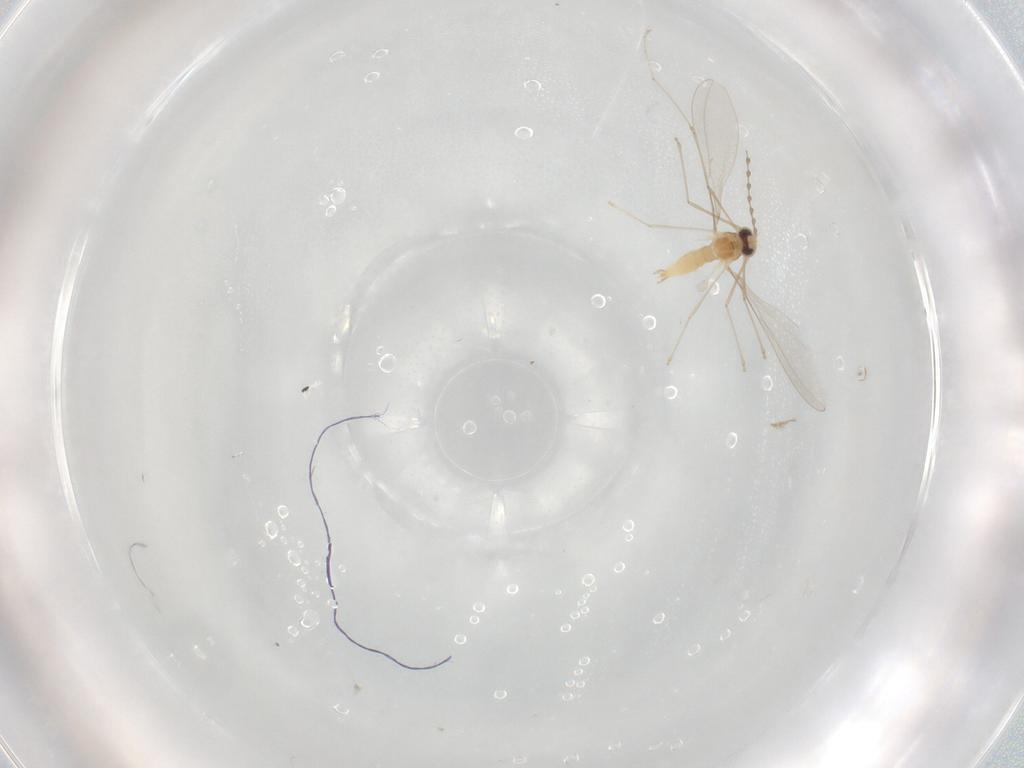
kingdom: Animalia
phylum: Arthropoda
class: Insecta
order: Diptera
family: Cecidomyiidae
